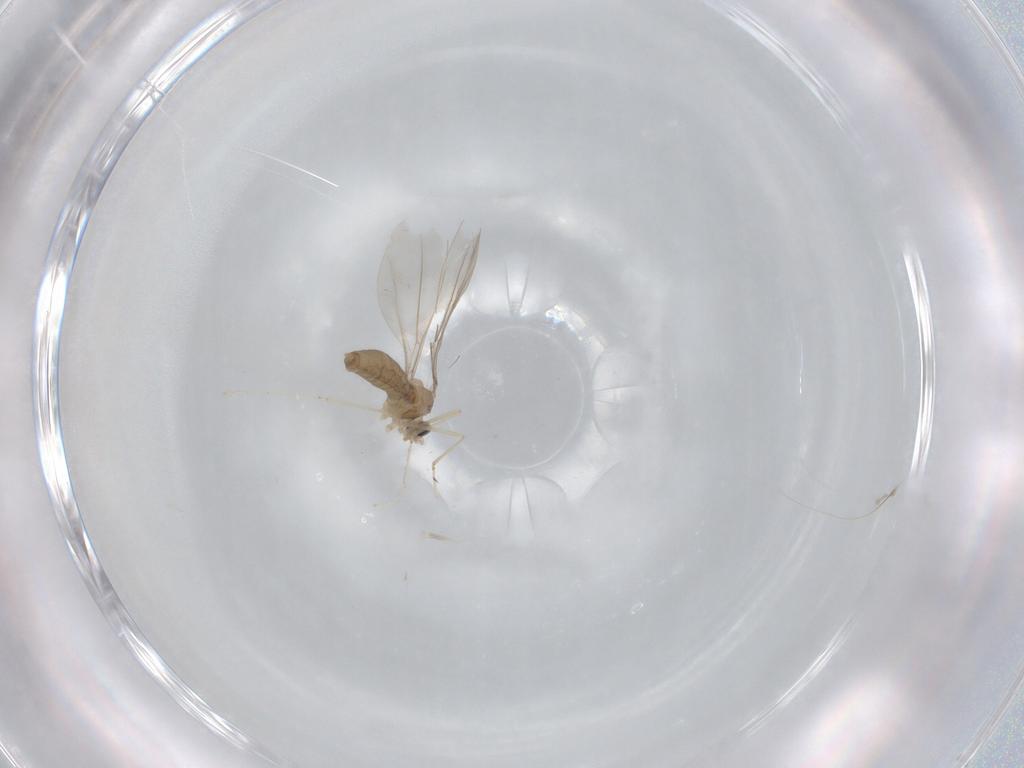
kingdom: Animalia
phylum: Arthropoda
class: Insecta
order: Diptera
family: Cecidomyiidae
